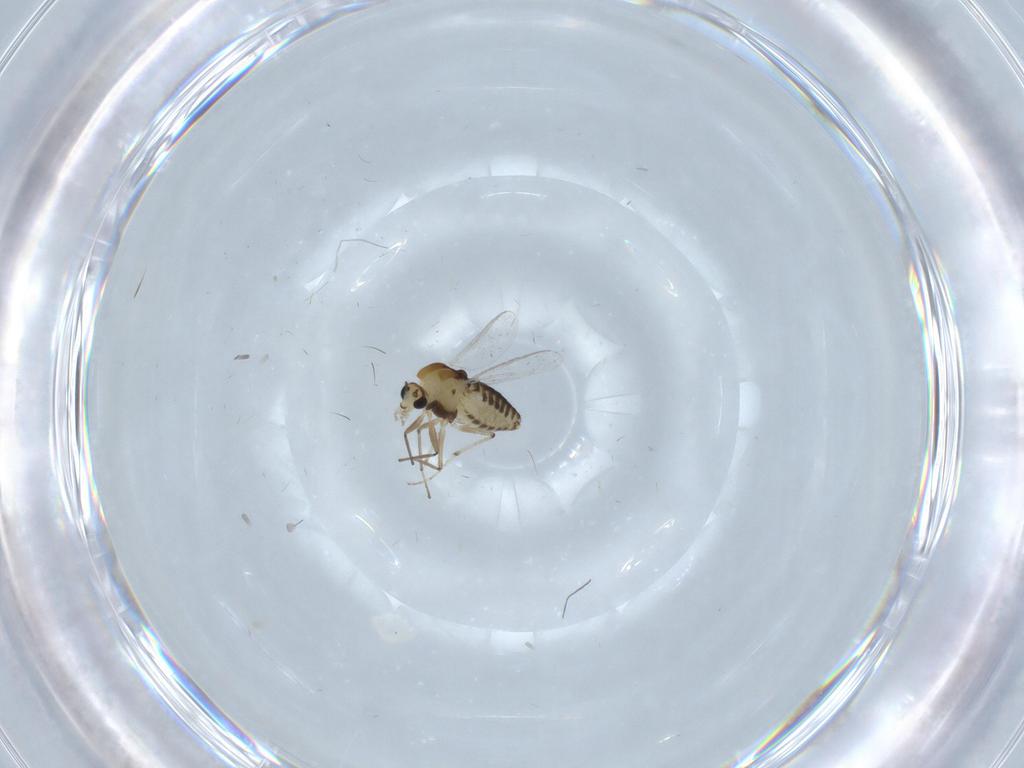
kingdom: Animalia
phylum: Arthropoda
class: Insecta
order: Diptera
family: Chironomidae
